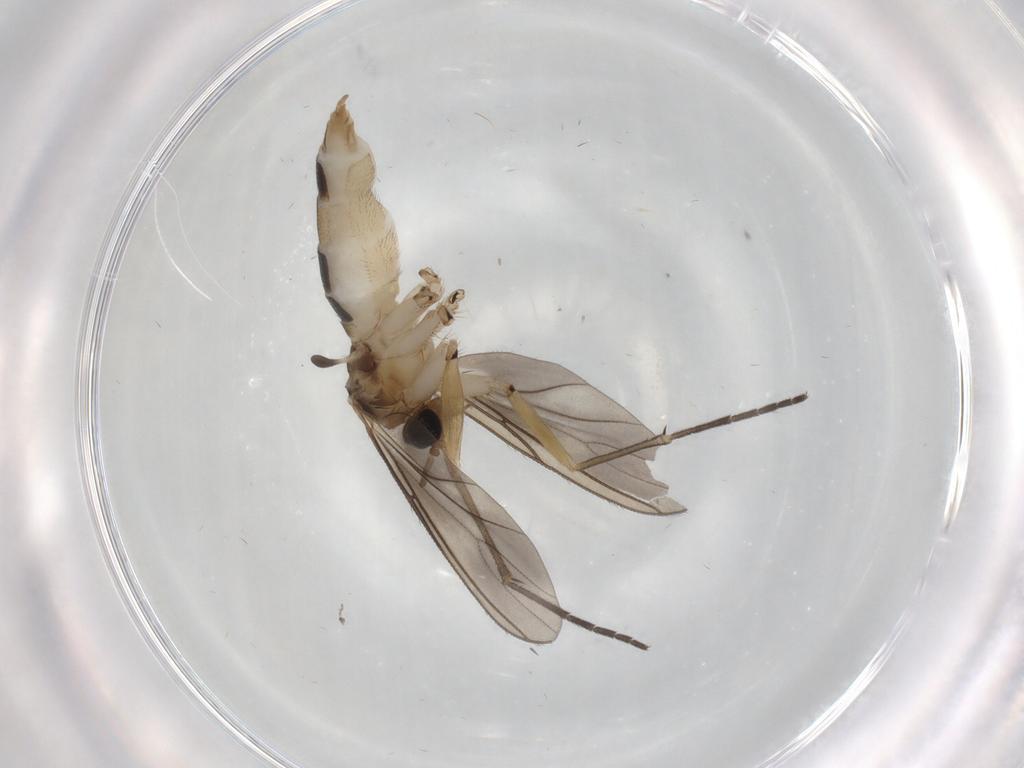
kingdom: Animalia
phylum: Arthropoda
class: Insecta
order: Diptera
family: Sciaridae
